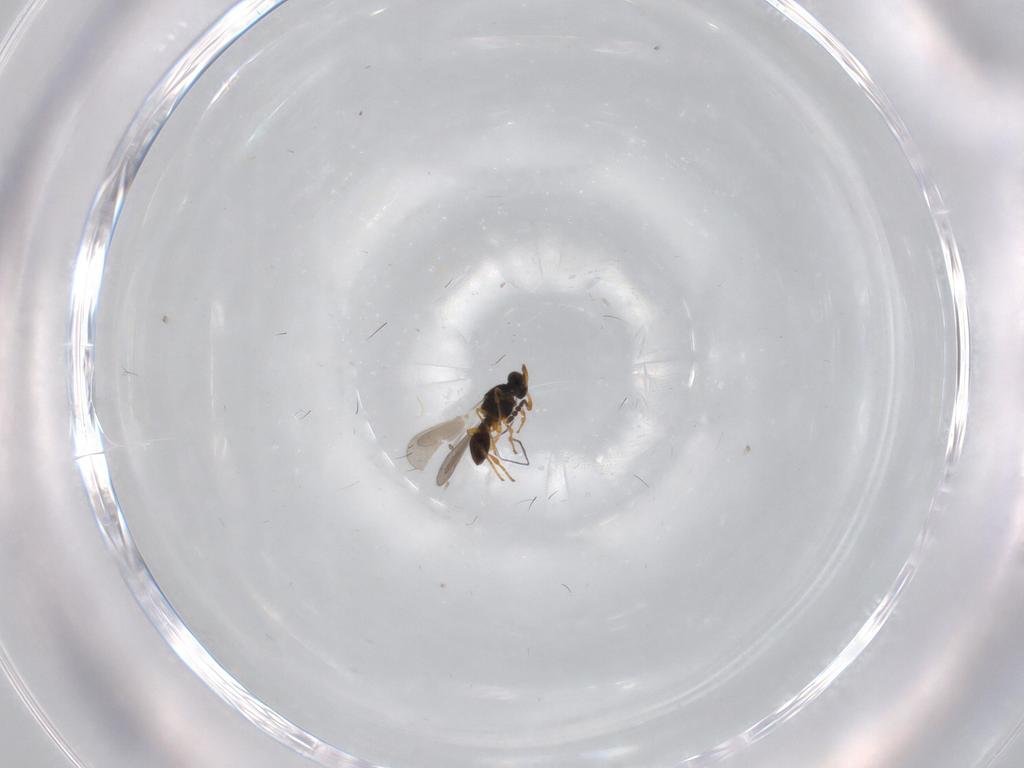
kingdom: Animalia
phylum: Arthropoda
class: Insecta
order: Hymenoptera
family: Platygastridae
